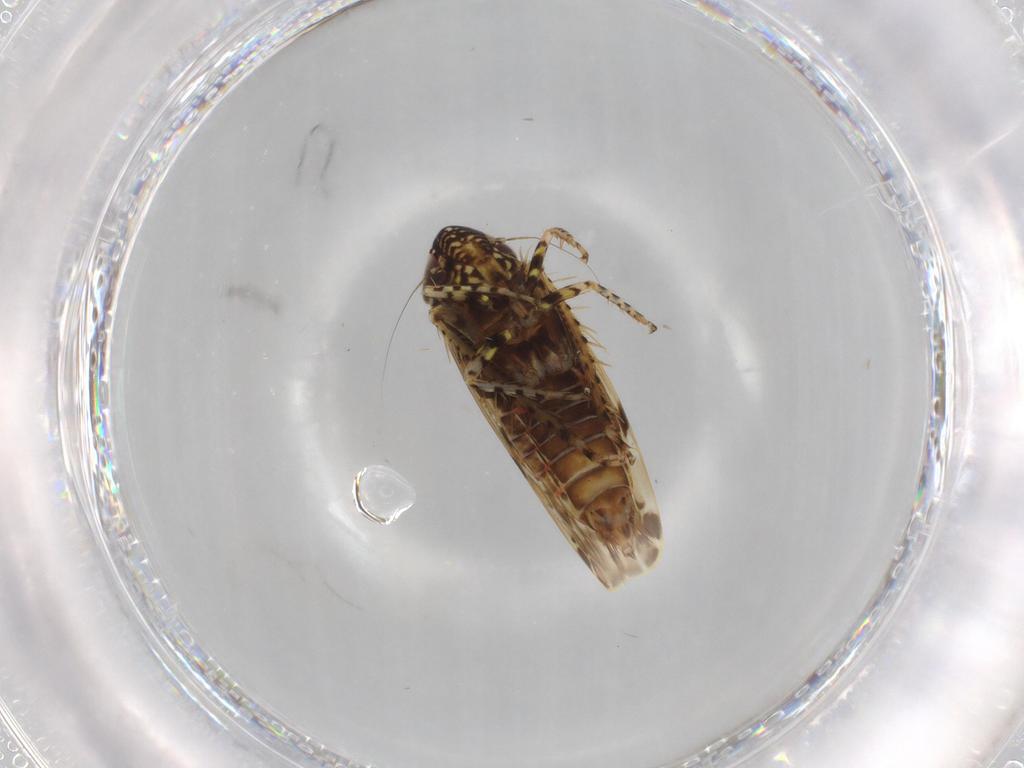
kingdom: Animalia
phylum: Arthropoda
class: Insecta
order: Hemiptera
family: Cicadellidae
